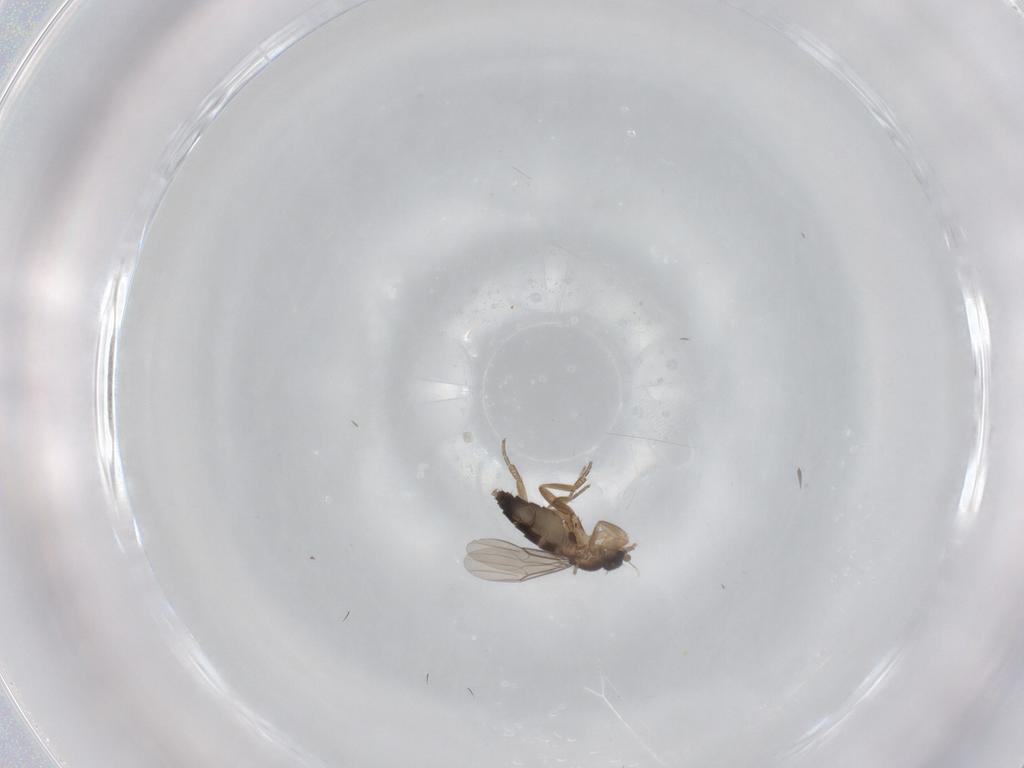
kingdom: Animalia
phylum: Arthropoda
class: Insecta
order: Diptera
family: Phoridae
